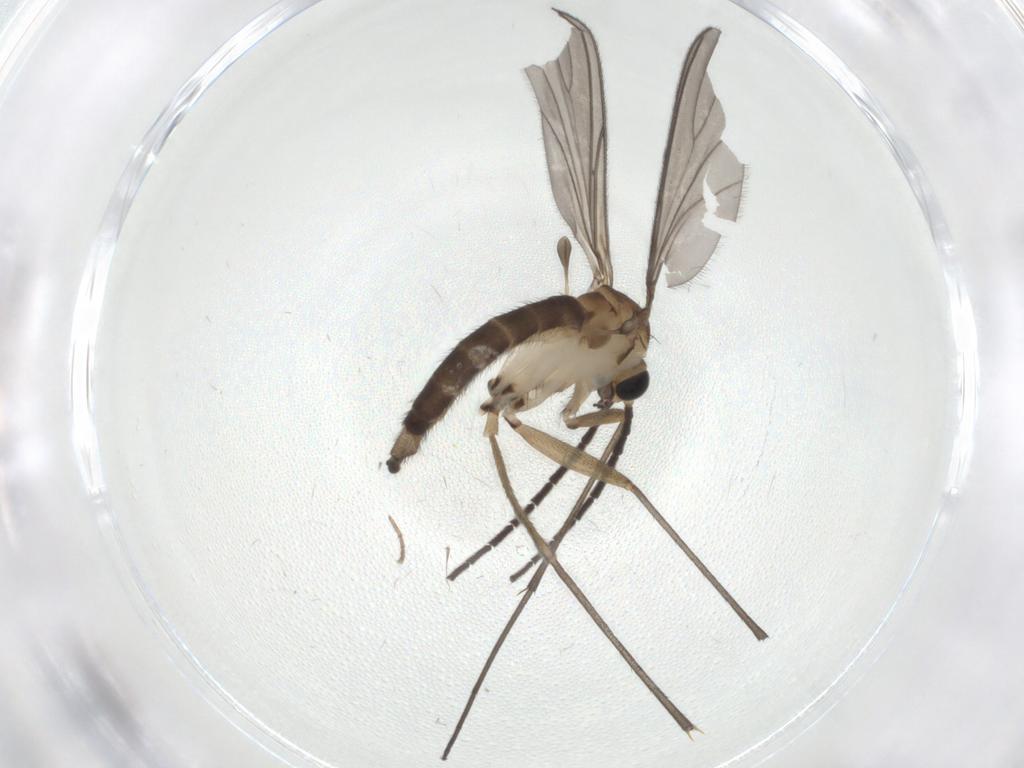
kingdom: Animalia
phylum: Arthropoda
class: Insecta
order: Diptera
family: Sciaridae
